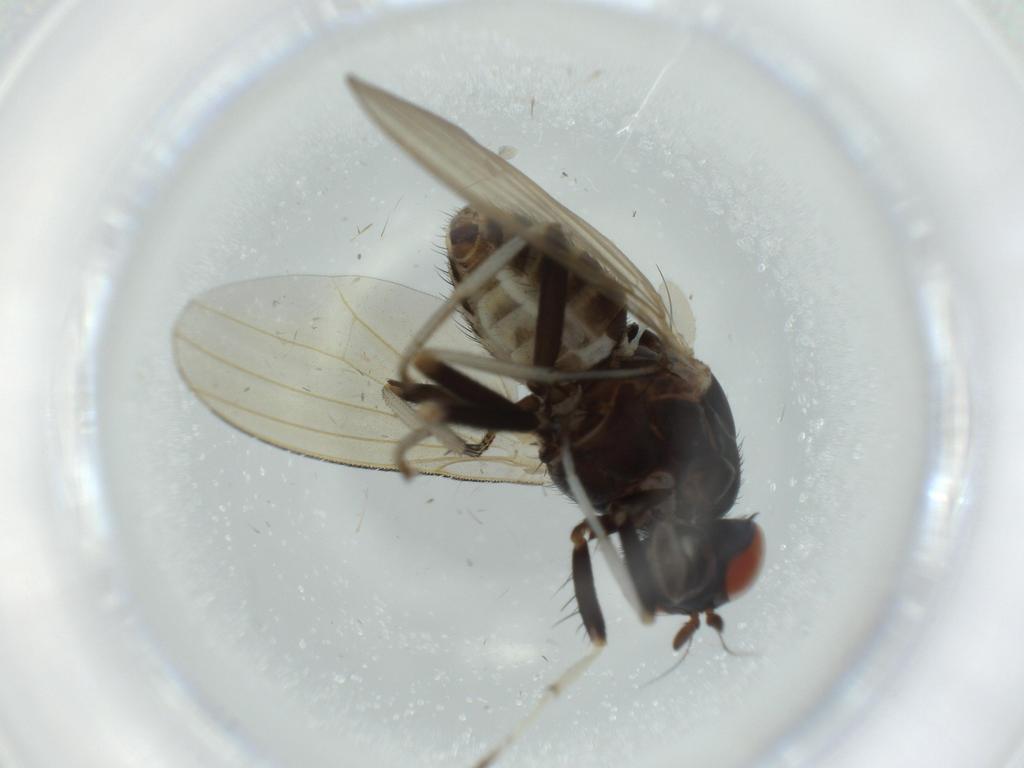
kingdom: Animalia
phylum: Arthropoda
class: Insecta
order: Diptera
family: Sciaridae
